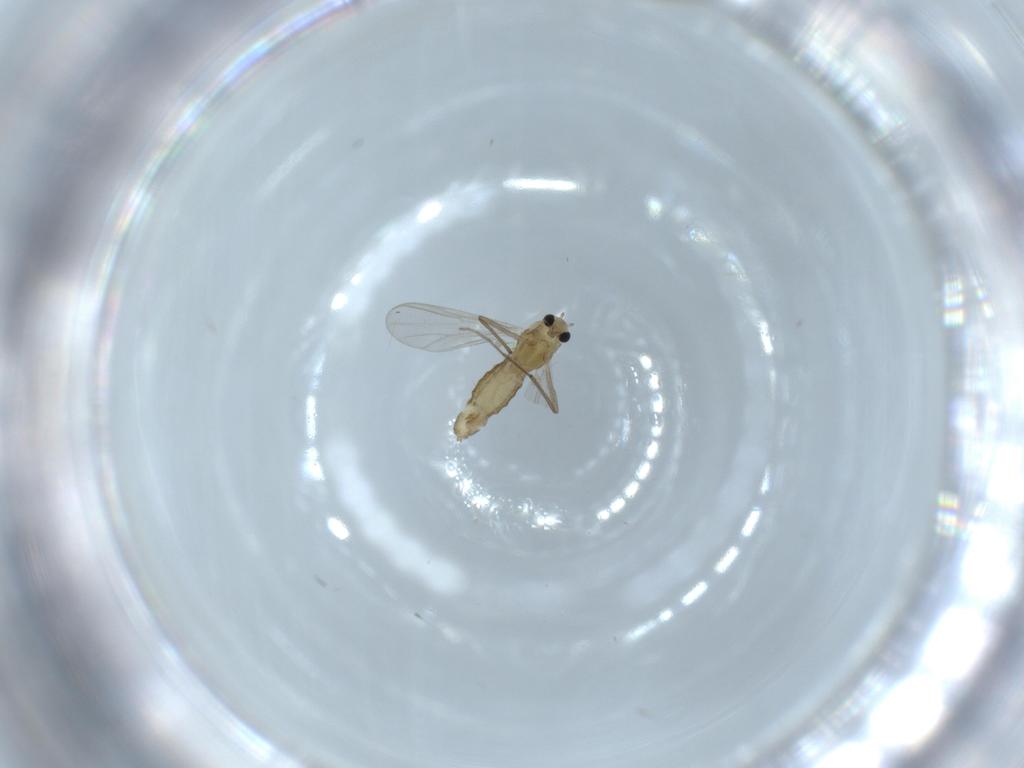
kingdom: Animalia
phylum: Arthropoda
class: Insecta
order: Diptera
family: Chironomidae
